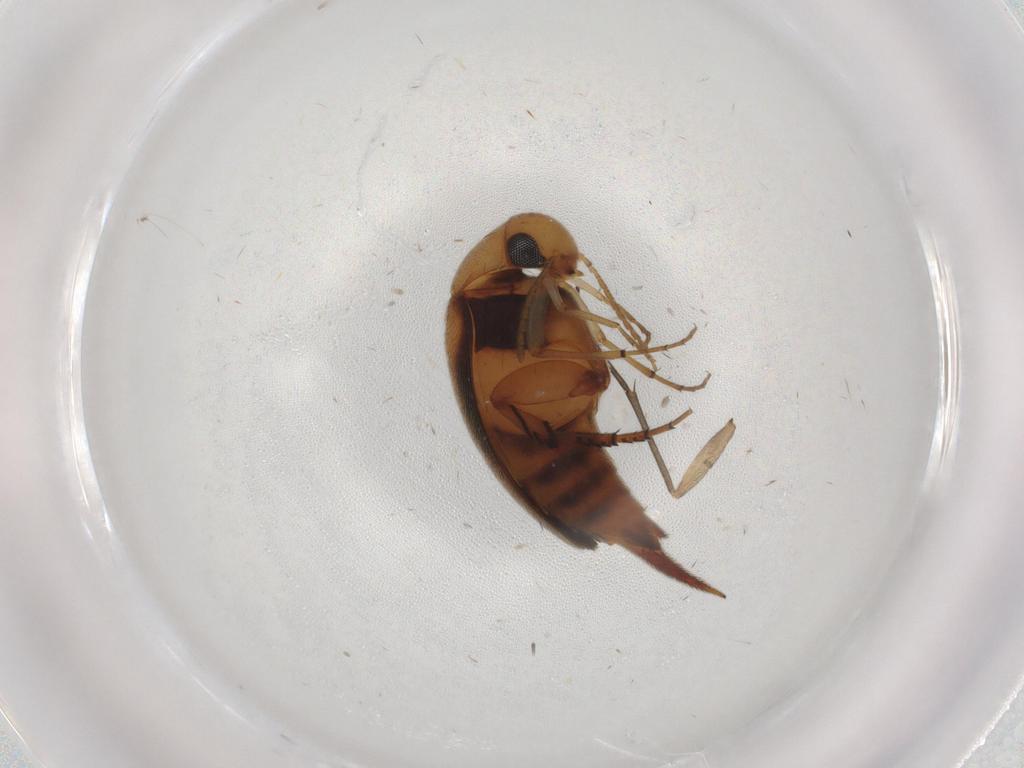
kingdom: Animalia
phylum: Arthropoda
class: Insecta
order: Coleoptera
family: Mordellidae
